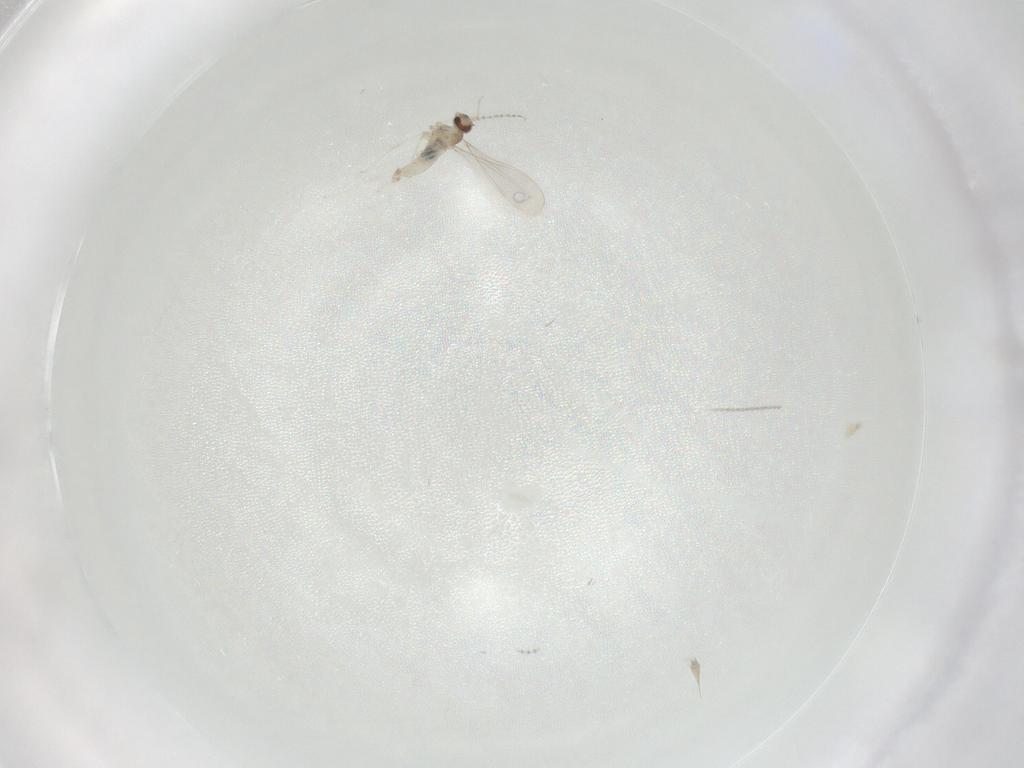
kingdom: Animalia
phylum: Arthropoda
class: Insecta
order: Diptera
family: Cecidomyiidae
